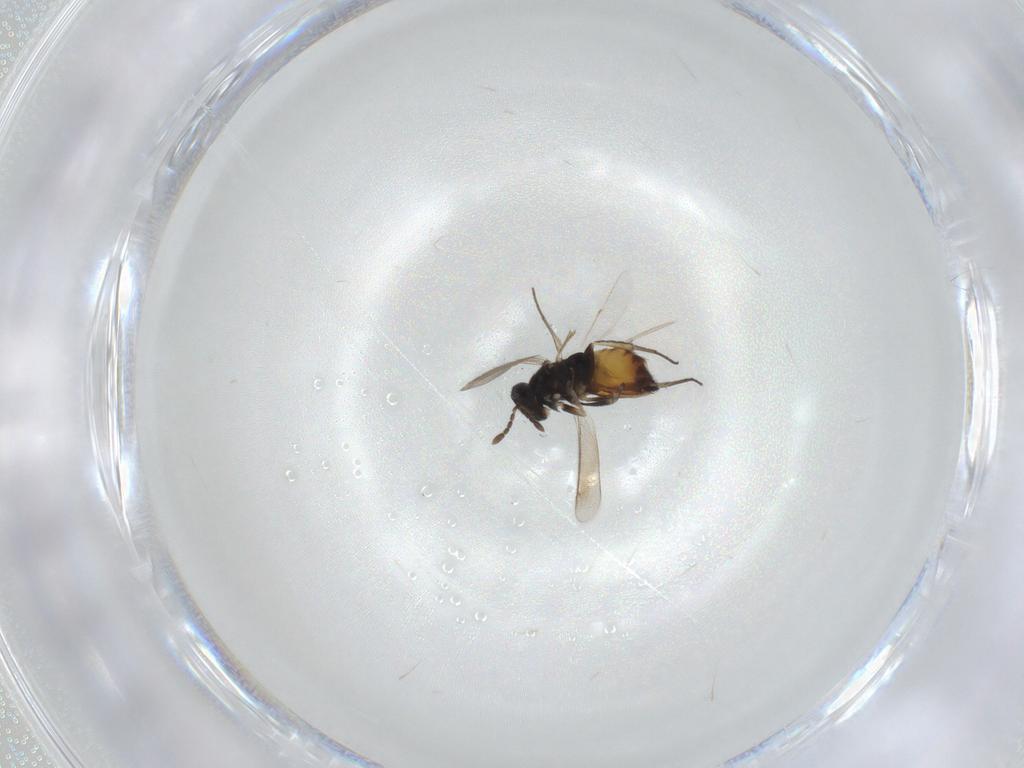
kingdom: Animalia
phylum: Arthropoda
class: Insecta
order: Hymenoptera
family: Eulophidae
